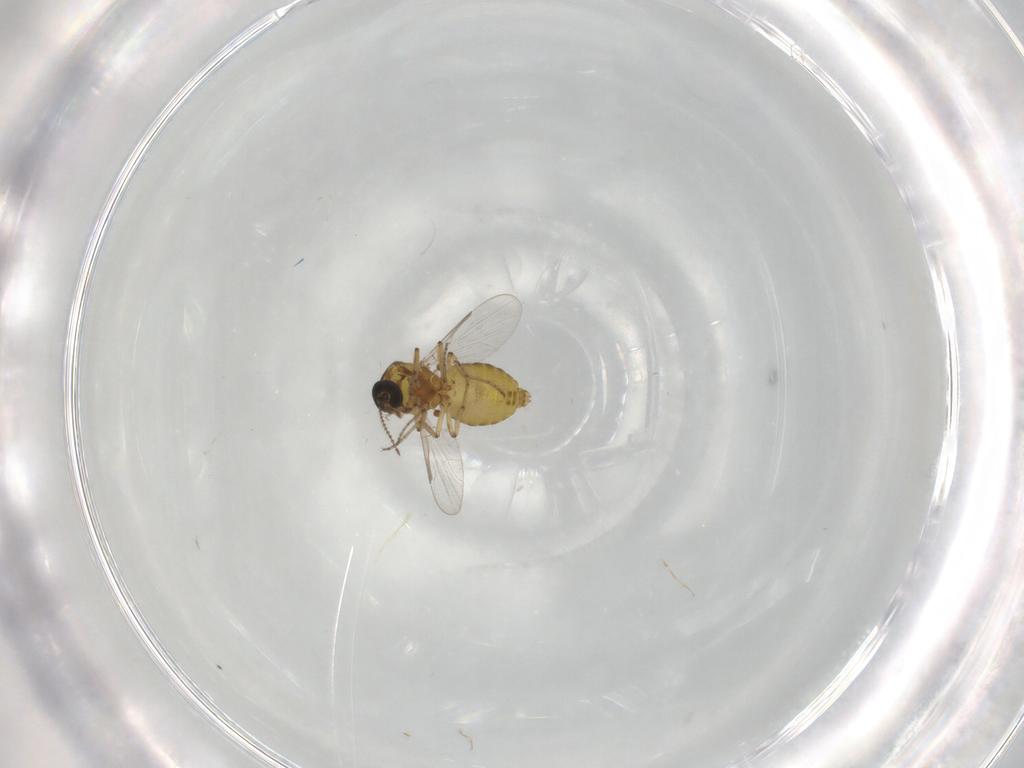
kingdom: Animalia
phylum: Arthropoda
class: Insecta
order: Diptera
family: Ceratopogonidae
